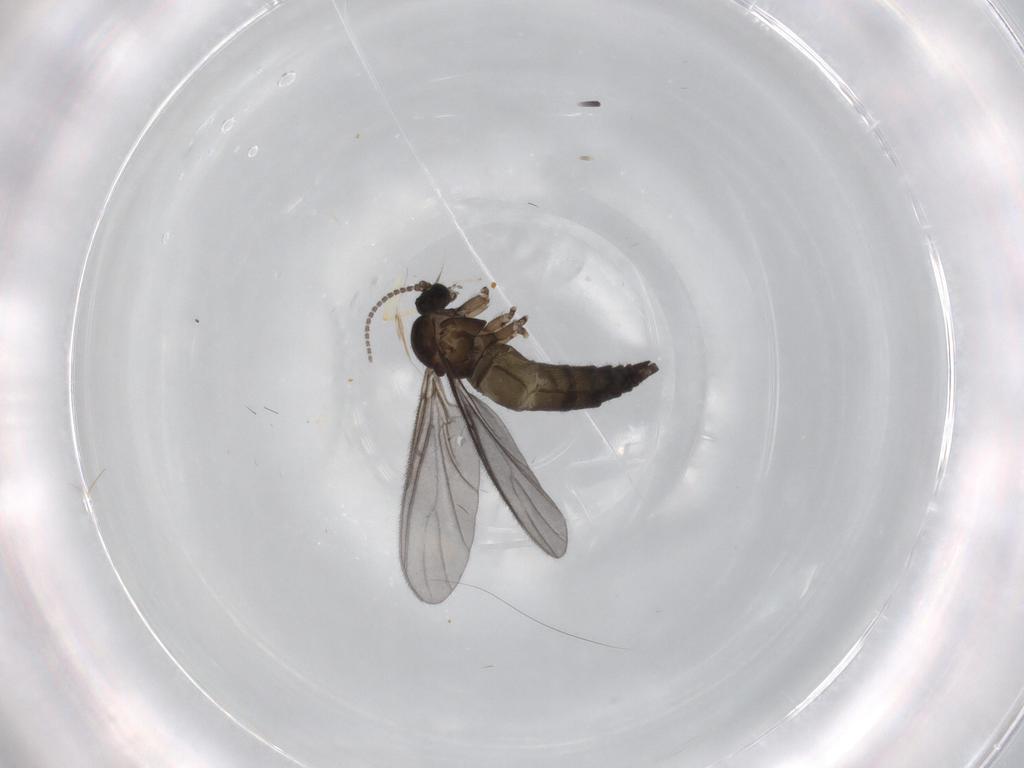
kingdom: Animalia
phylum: Arthropoda
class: Insecta
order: Diptera
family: Sciaridae
